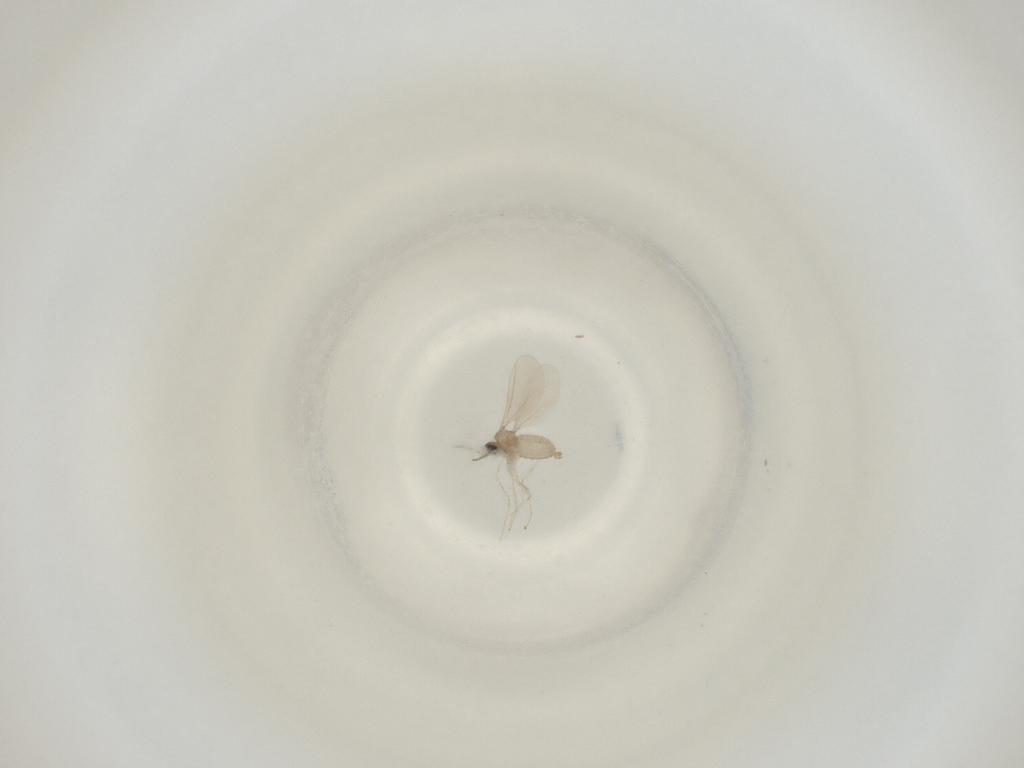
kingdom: Animalia
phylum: Arthropoda
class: Insecta
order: Diptera
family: Cecidomyiidae
